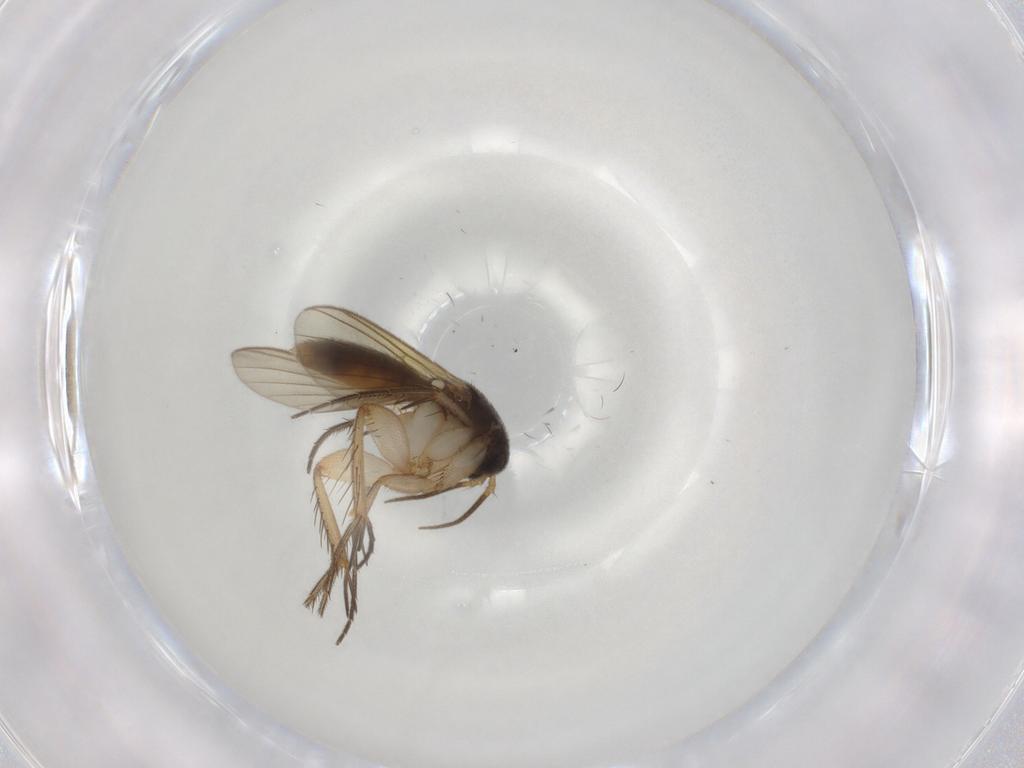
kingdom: Animalia
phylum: Arthropoda
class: Insecta
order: Diptera
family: Mycetophilidae
